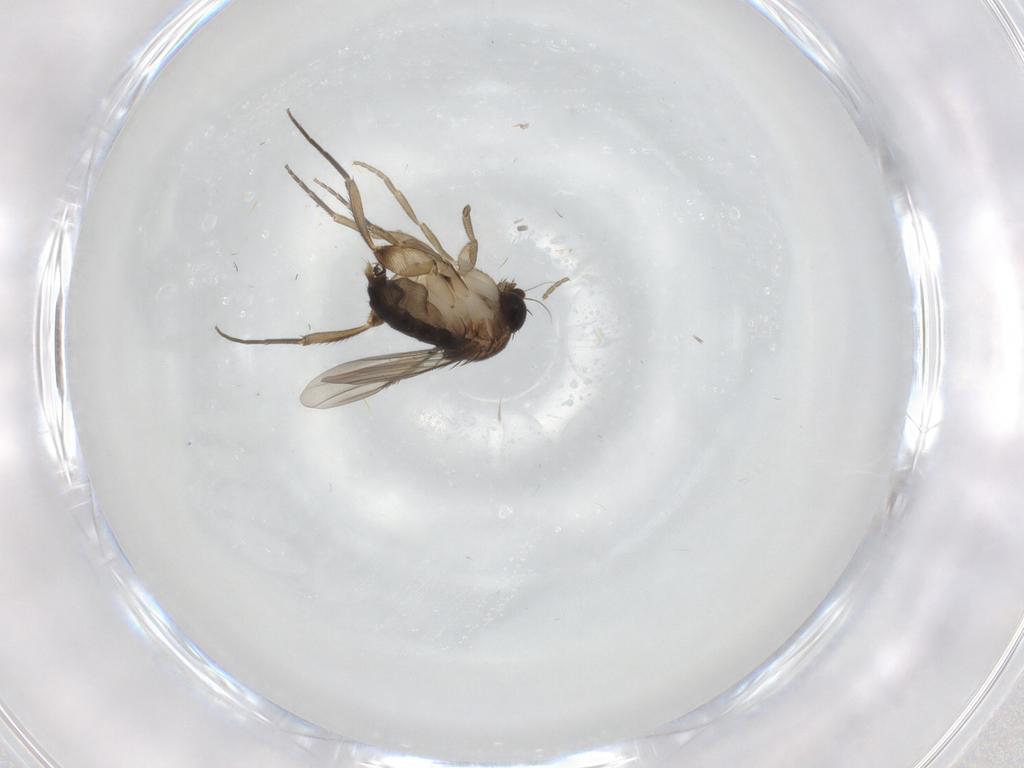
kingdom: Animalia
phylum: Arthropoda
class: Insecta
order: Diptera
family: Phoridae
